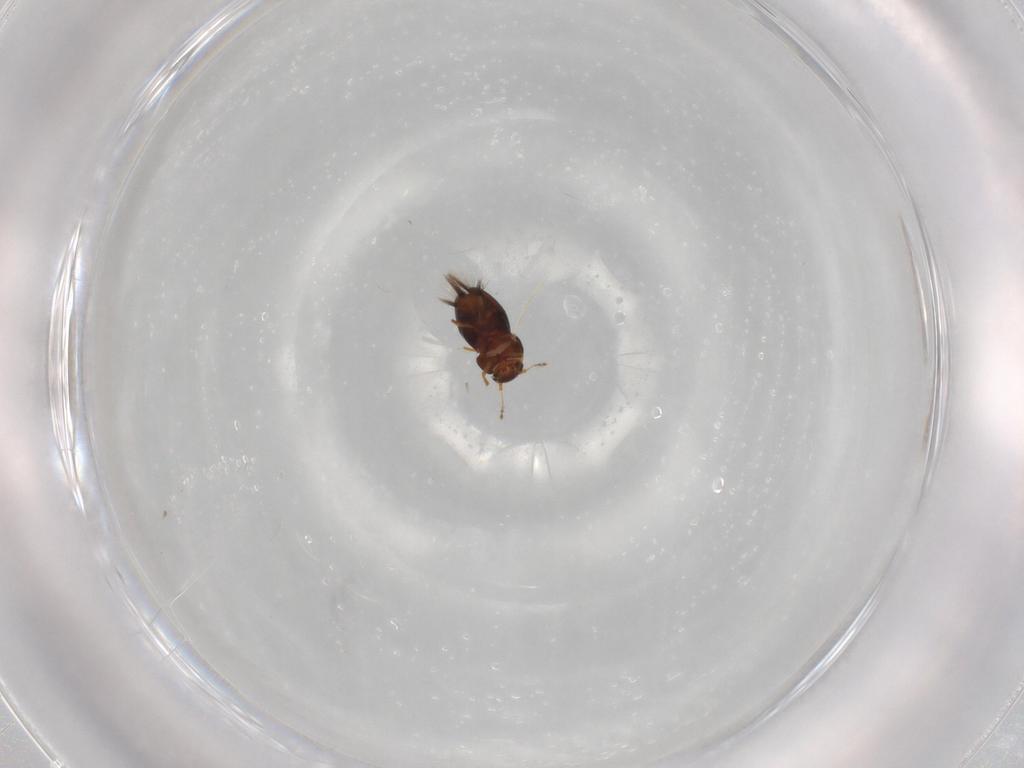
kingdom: Animalia
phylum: Arthropoda
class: Insecta
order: Coleoptera
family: Ptiliidae
